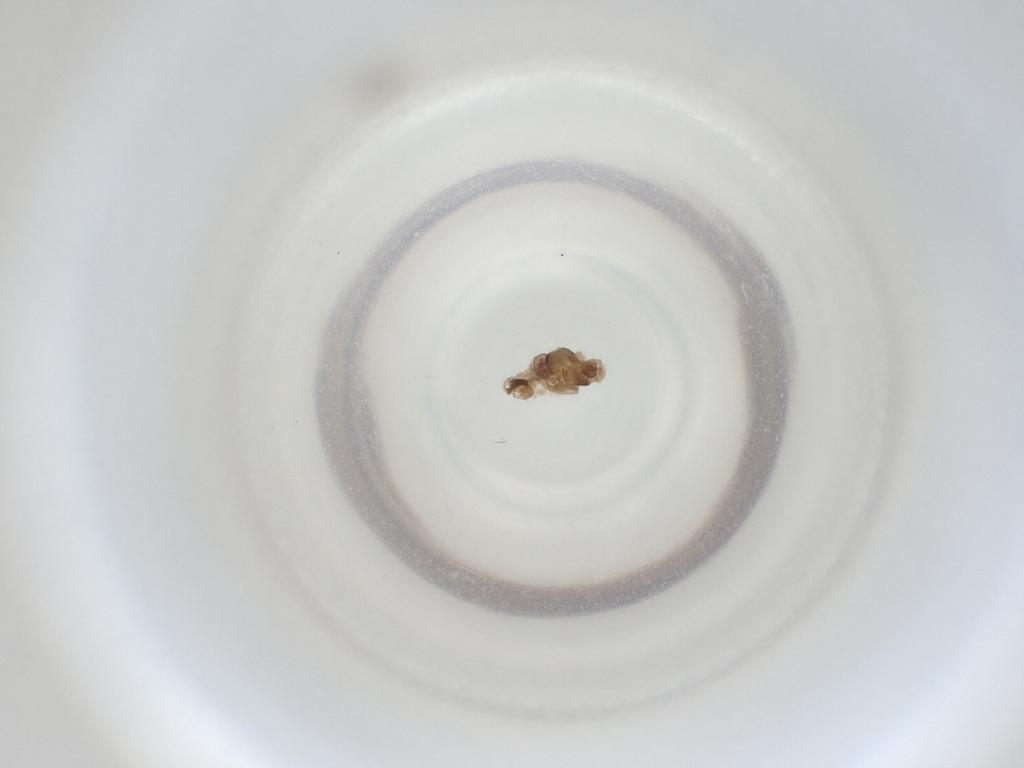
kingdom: Animalia
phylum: Arthropoda
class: Insecta
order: Diptera
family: Cecidomyiidae
